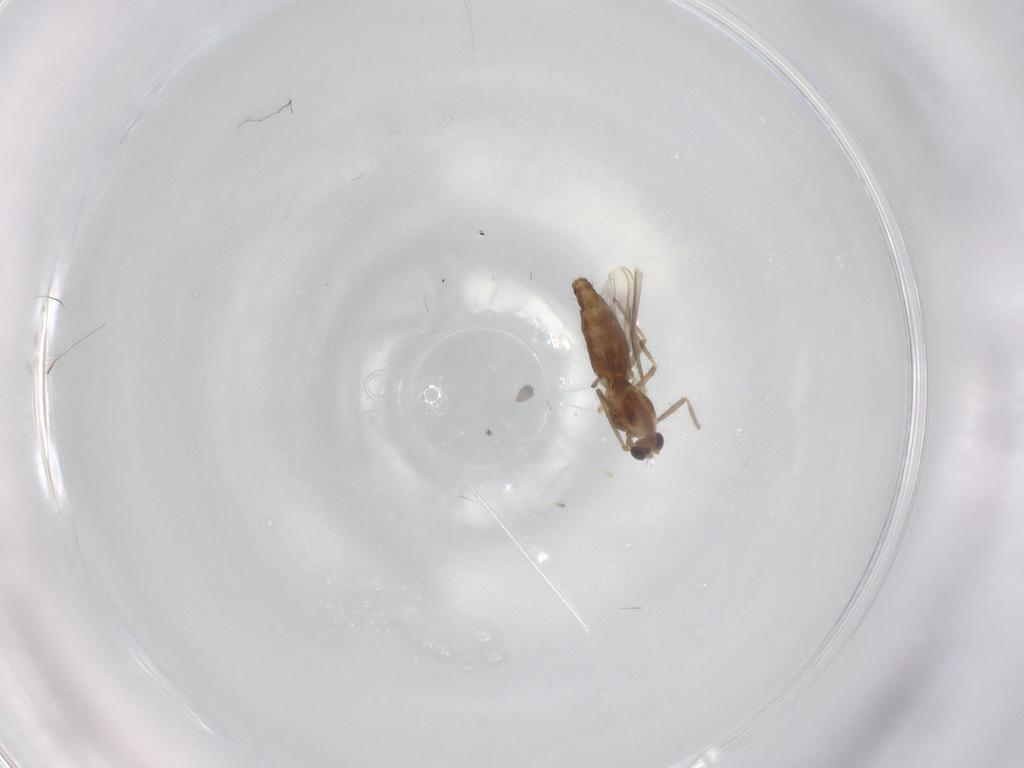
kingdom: Animalia
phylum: Arthropoda
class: Insecta
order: Diptera
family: Chironomidae
